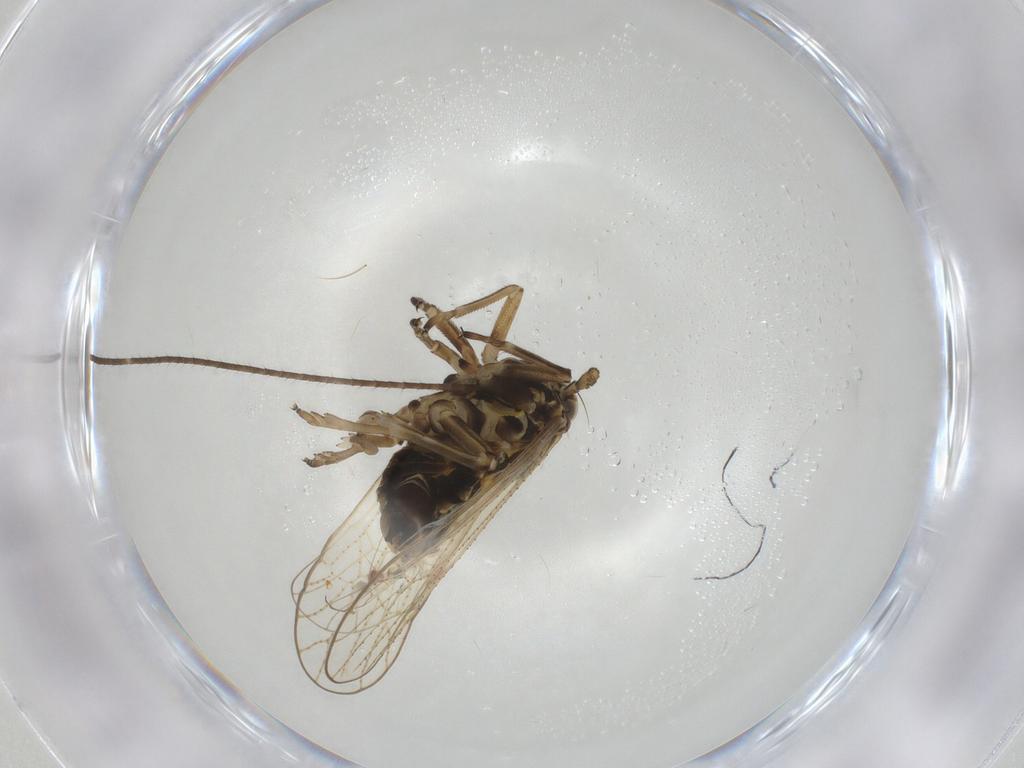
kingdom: Animalia
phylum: Arthropoda
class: Insecta
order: Hemiptera
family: Delphacidae
